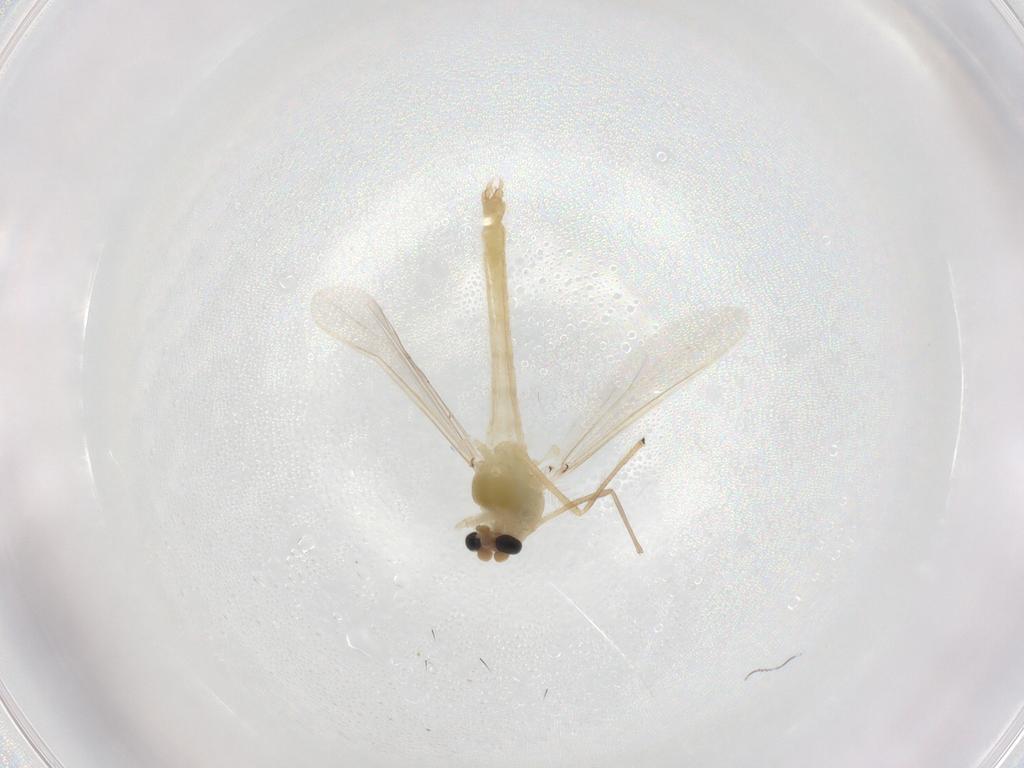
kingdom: Animalia
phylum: Arthropoda
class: Insecta
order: Diptera
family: Chironomidae
